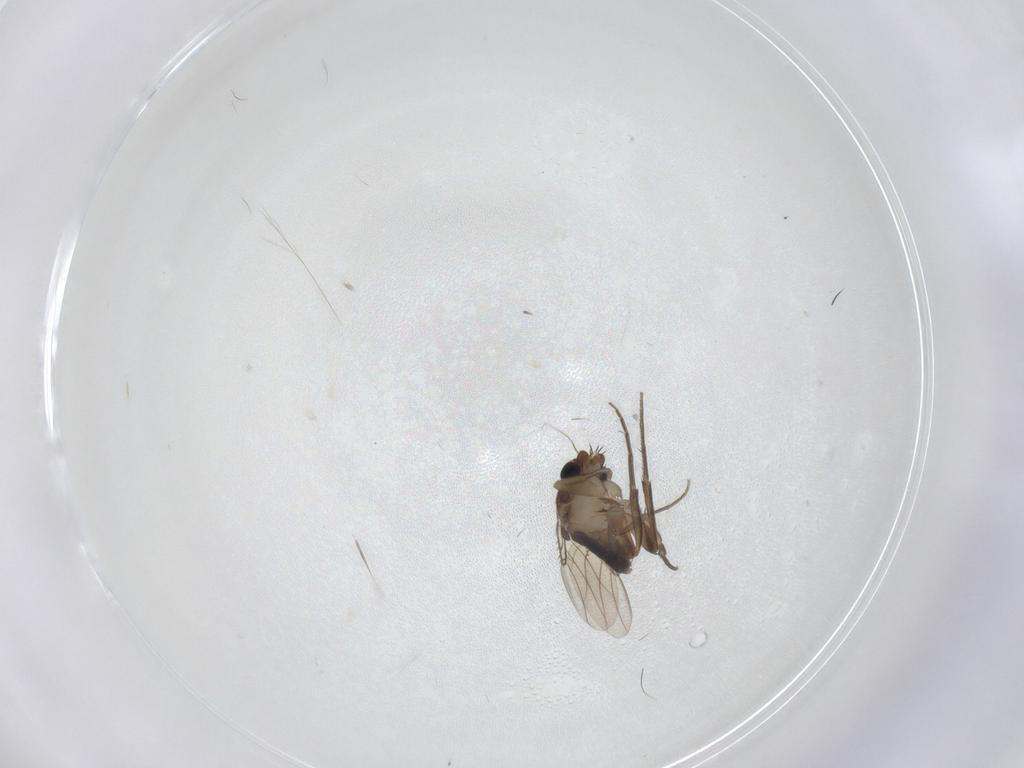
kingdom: Animalia
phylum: Arthropoda
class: Insecta
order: Diptera
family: Phoridae
